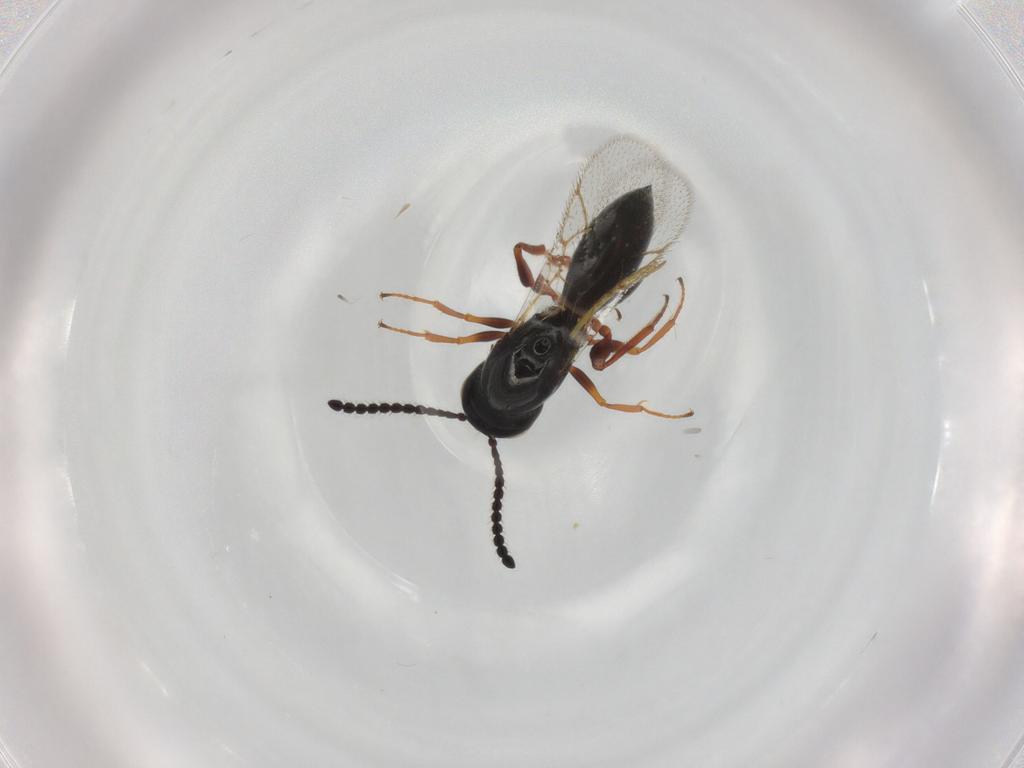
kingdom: Animalia
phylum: Arthropoda
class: Insecta
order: Hymenoptera
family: Figitidae
